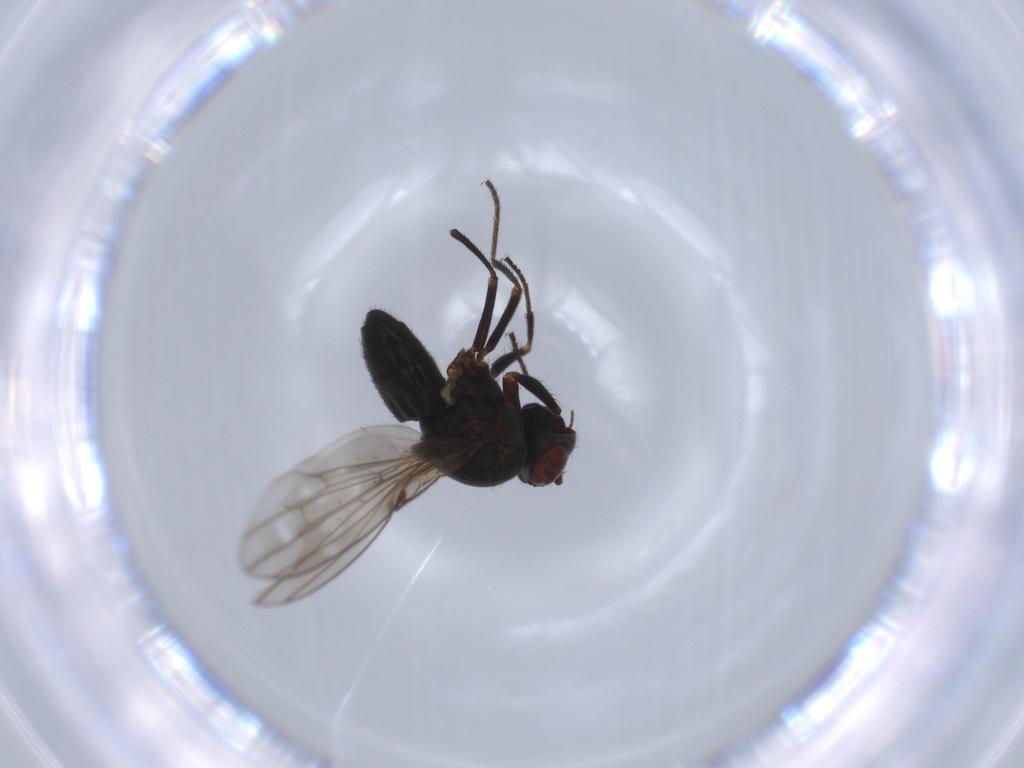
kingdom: Animalia
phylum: Arthropoda
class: Insecta
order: Diptera
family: Ephydridae
